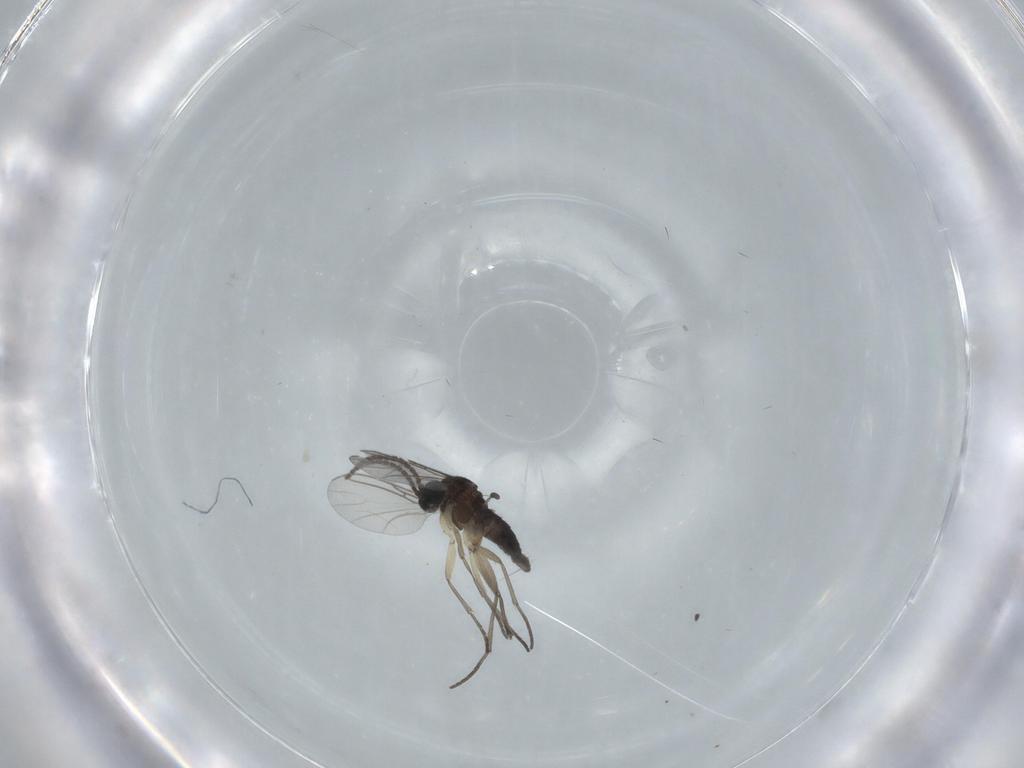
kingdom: Animalia
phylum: Arthropoda
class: Insecta
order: Diptera
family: Sciaridae
